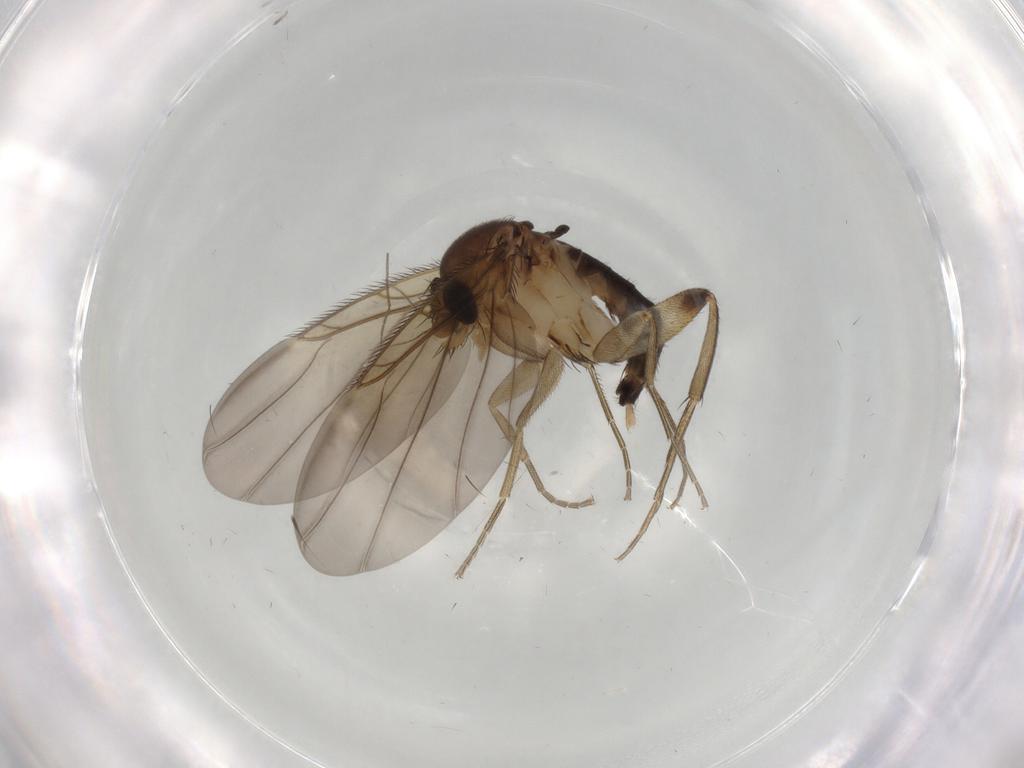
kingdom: Animalia
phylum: Arthropoda
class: Insecta
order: Diptera
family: Phoridae
